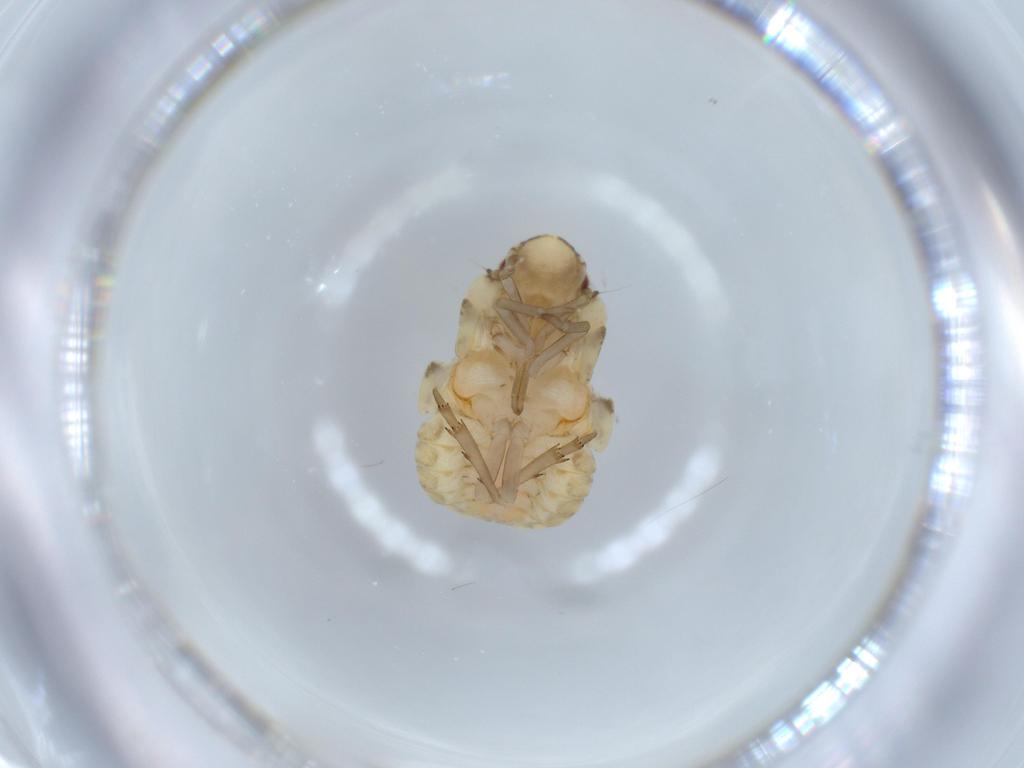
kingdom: Animalia
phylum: Arthropoda
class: Insecta
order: Hemiptera
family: Flatidae
